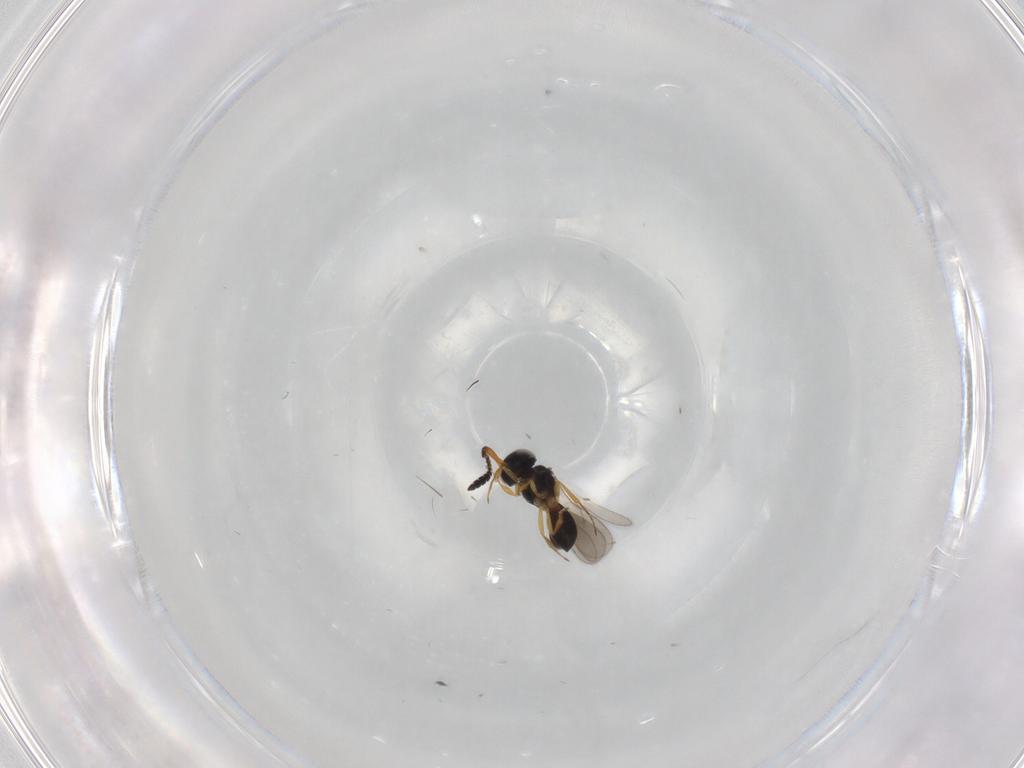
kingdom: Animalia
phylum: Arthropoda
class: Insecta
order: Hymenoptera
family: Scelionidae
